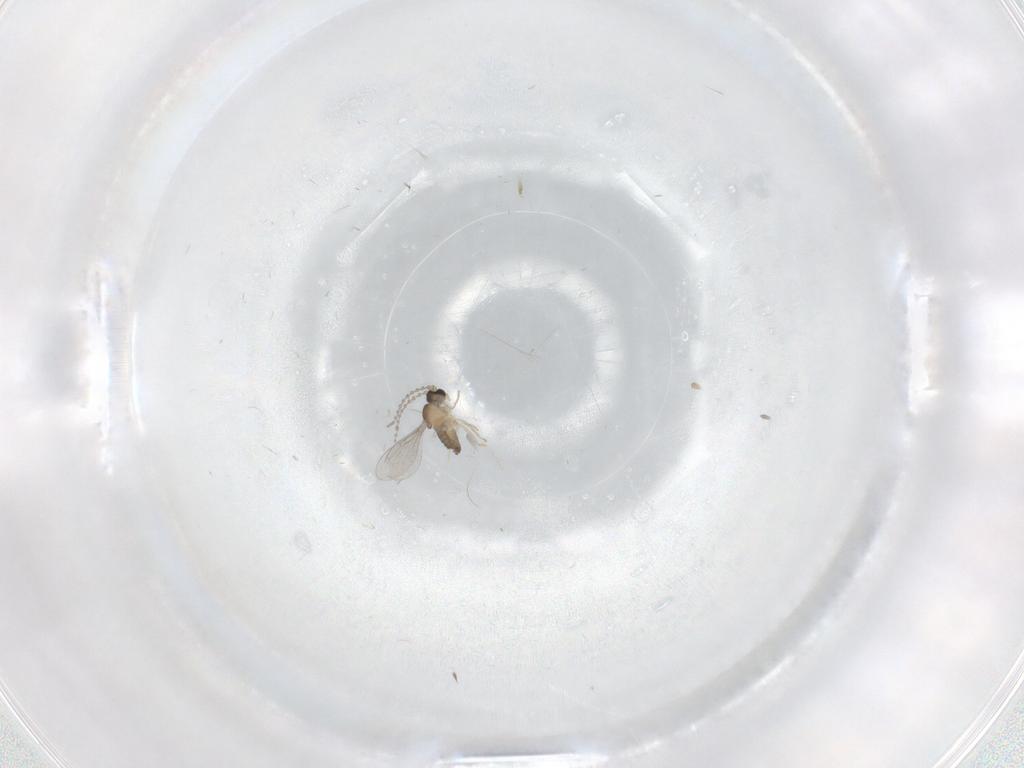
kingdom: Animalia
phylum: Arthropoda
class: Insecta
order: Diptera
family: Cecidomyiidae
